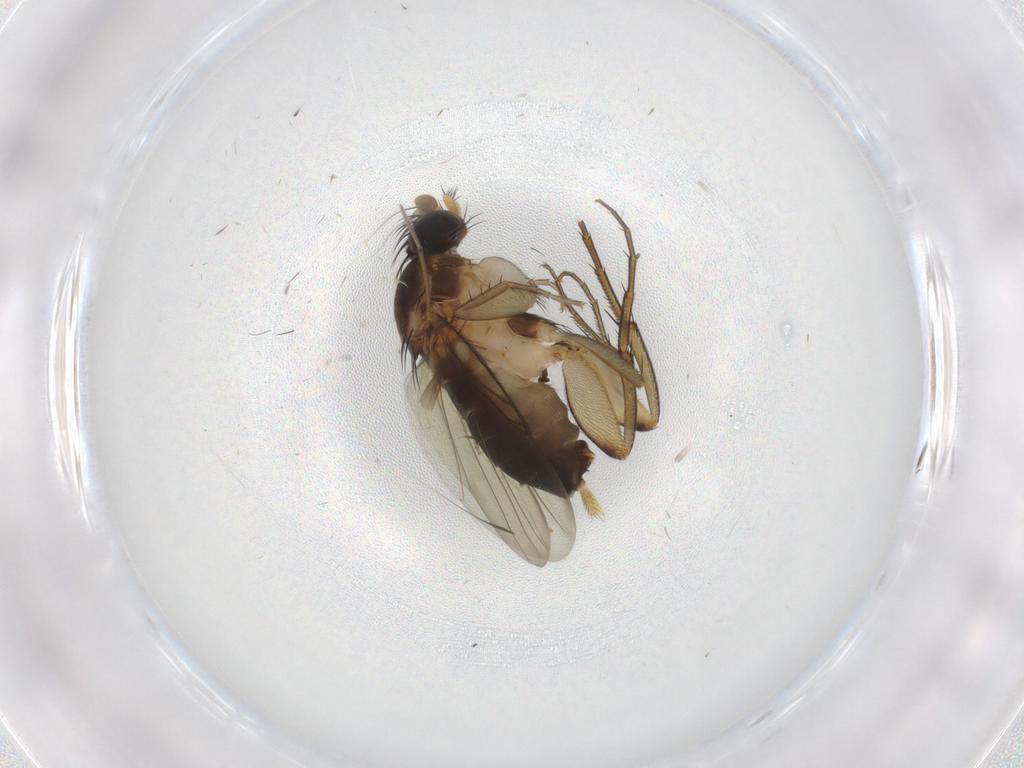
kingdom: Animalia
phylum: Arthropoda
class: Insecta
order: Diptera
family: Phoridae
